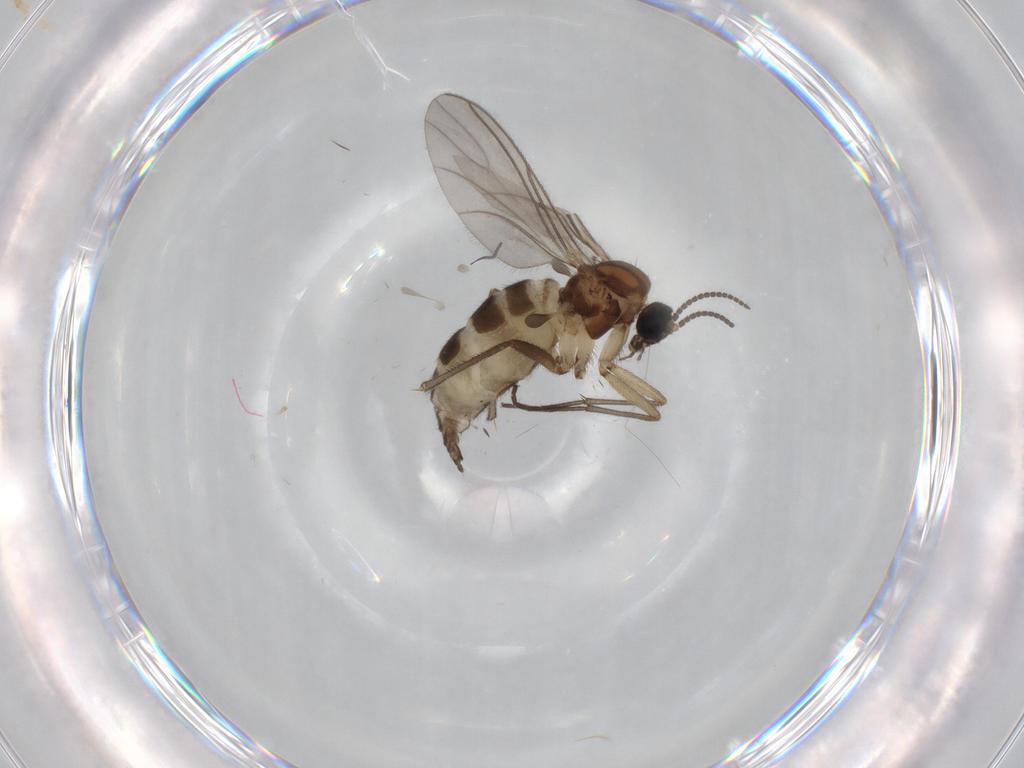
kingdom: Animalia
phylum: Arthropoda
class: Insecta
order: Diptera
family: Sciaridae
